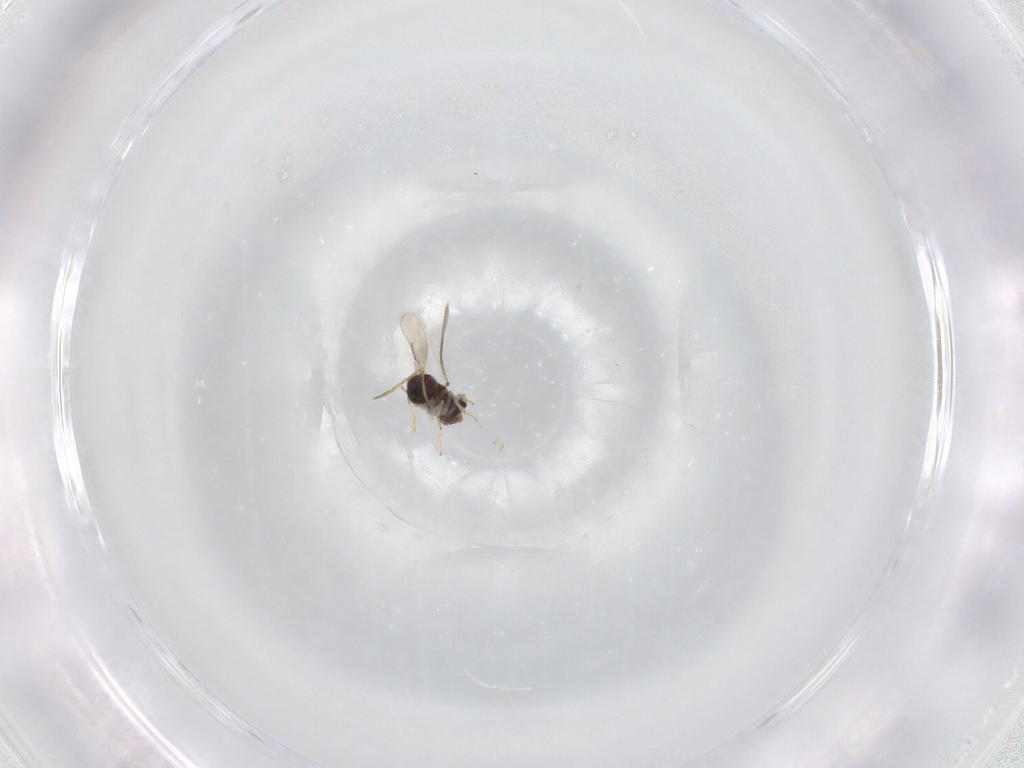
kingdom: Animalia
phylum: Arthropoda
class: Insecta
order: Hymenoptera
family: Aphelinidae
